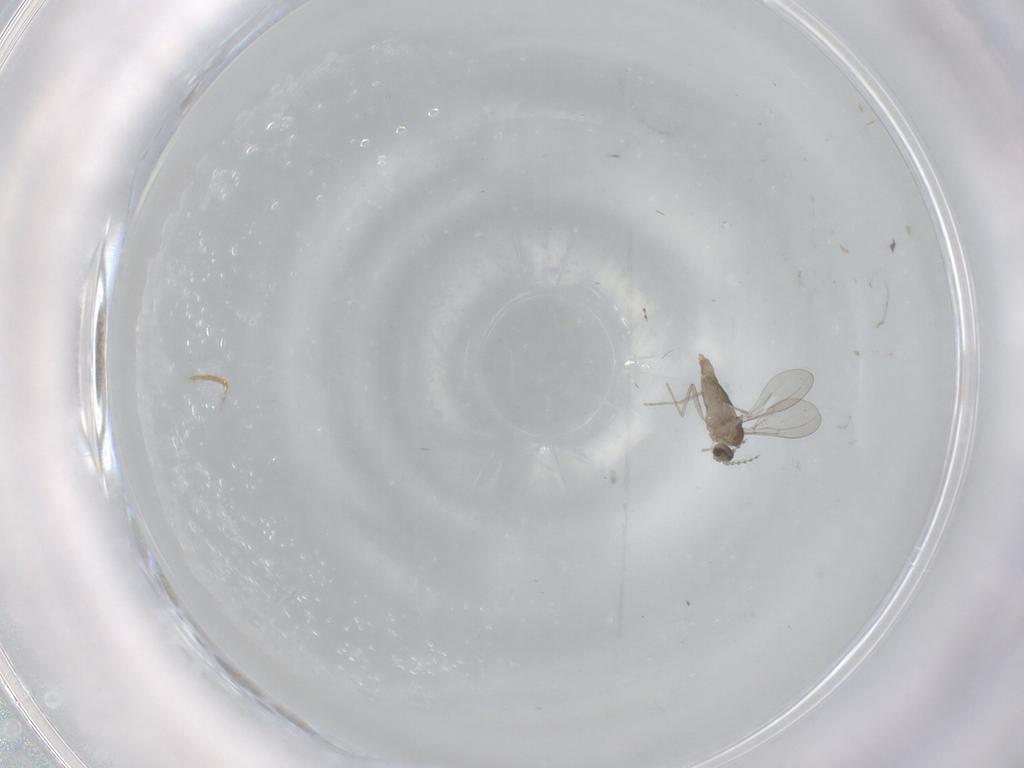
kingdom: Animalia
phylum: Arthropoda
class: Insecta
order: Diptera
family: Cecidomyiidae
